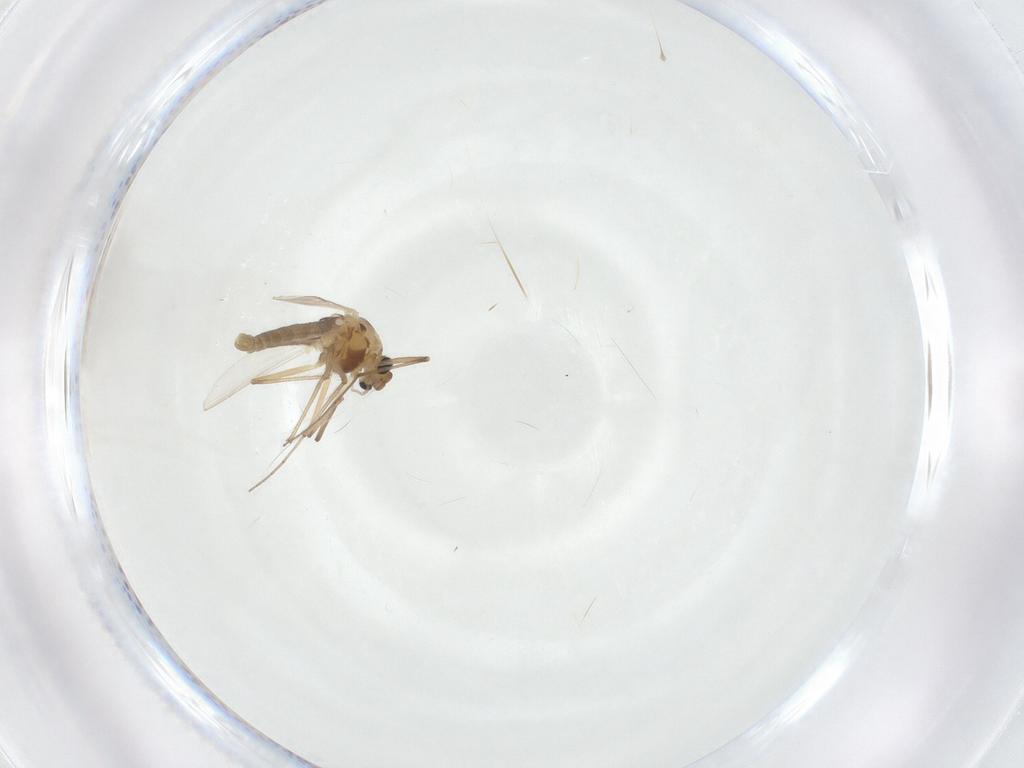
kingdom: Animalia
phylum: Arthropoda
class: Insecta
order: Diptera
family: Chironomidae
